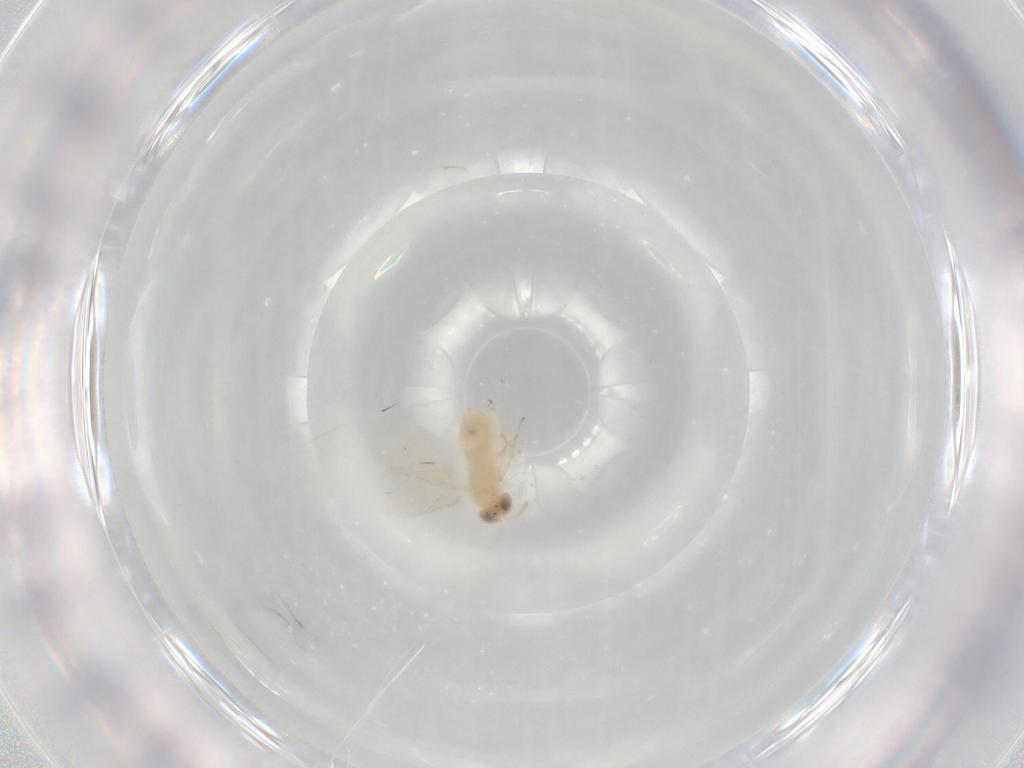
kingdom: Animalia
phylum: Arthropoda
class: Insecta
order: Hymenoptera
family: Aphelinidae
